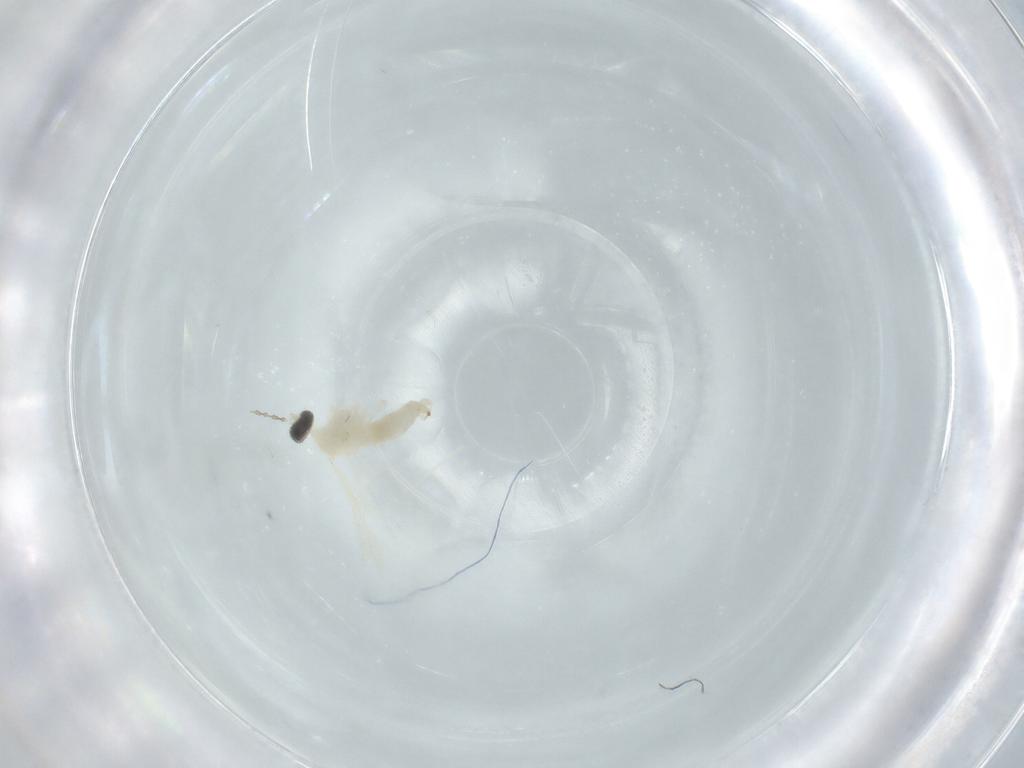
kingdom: Animalia
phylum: Arthropoda
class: Insecta
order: Diptera
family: Cecidomyiidae
